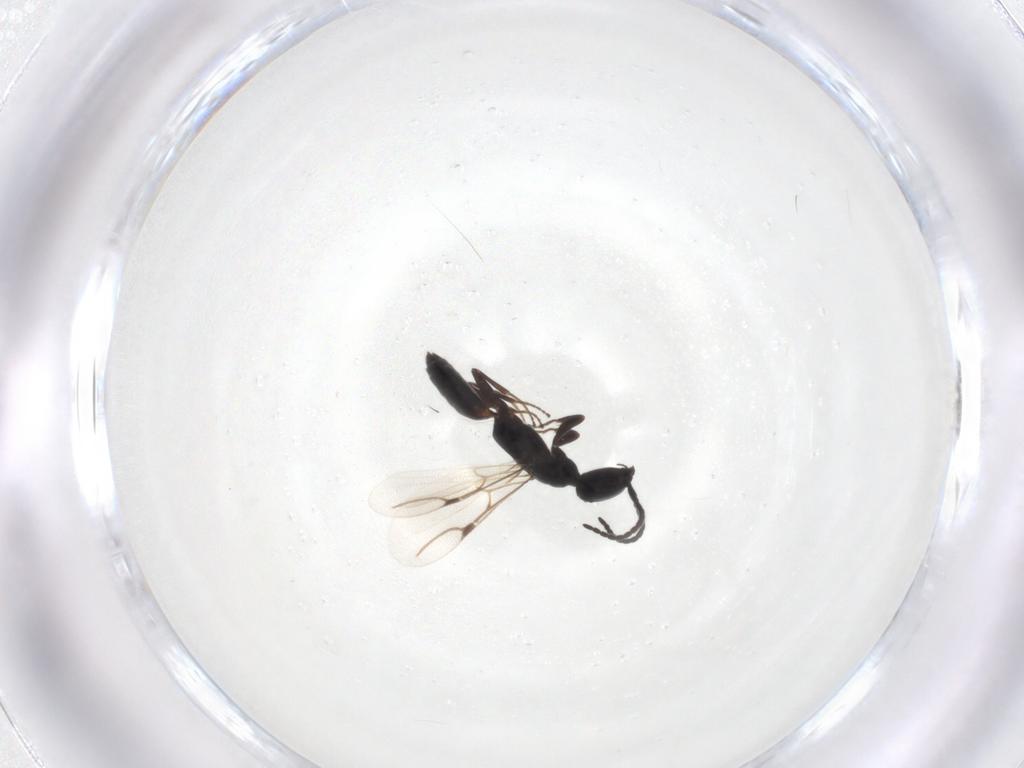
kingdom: Animalia
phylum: Arthropoda
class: Insecta
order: Hymenoptera
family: Bethylidae
